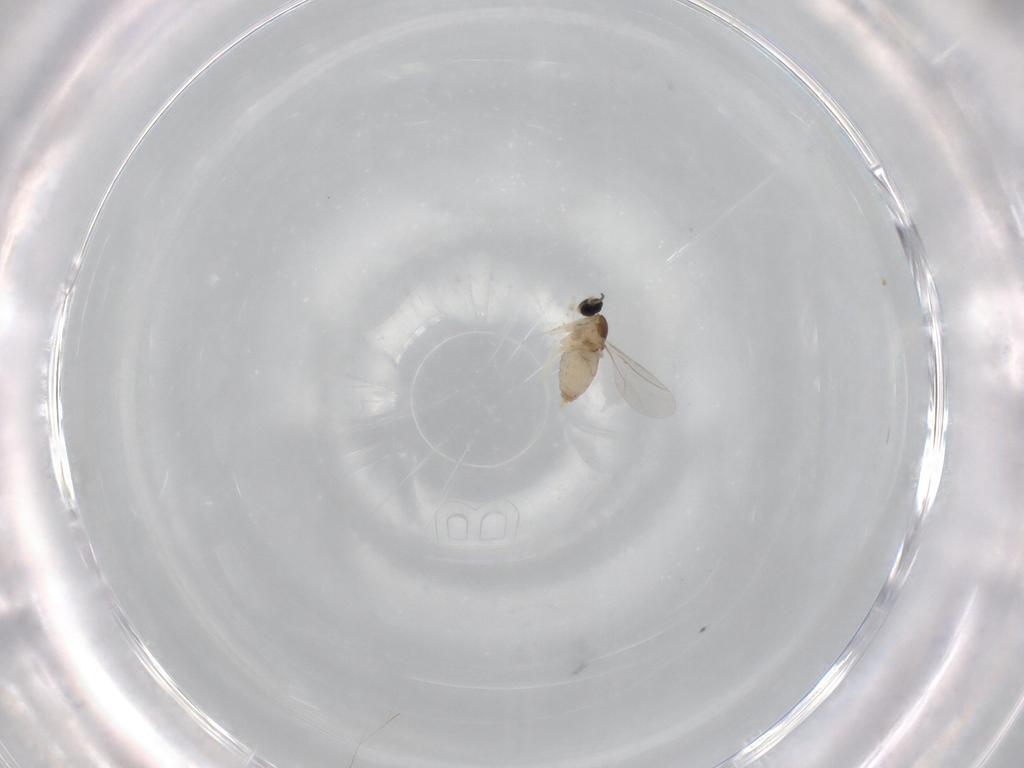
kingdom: Animalia
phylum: Arthropoda
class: Insecta
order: Diptera
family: Cecidomyiidae
